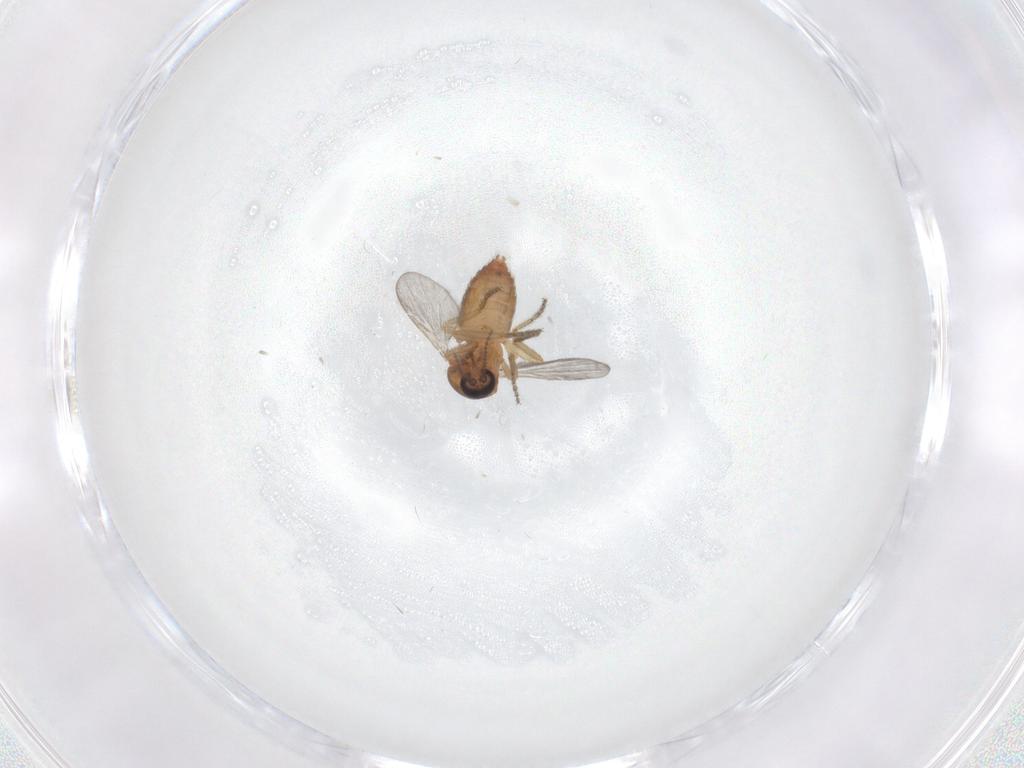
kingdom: Animalia
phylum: Arthropoda
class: Insecta
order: Diptera
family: Ceratopogonidae
